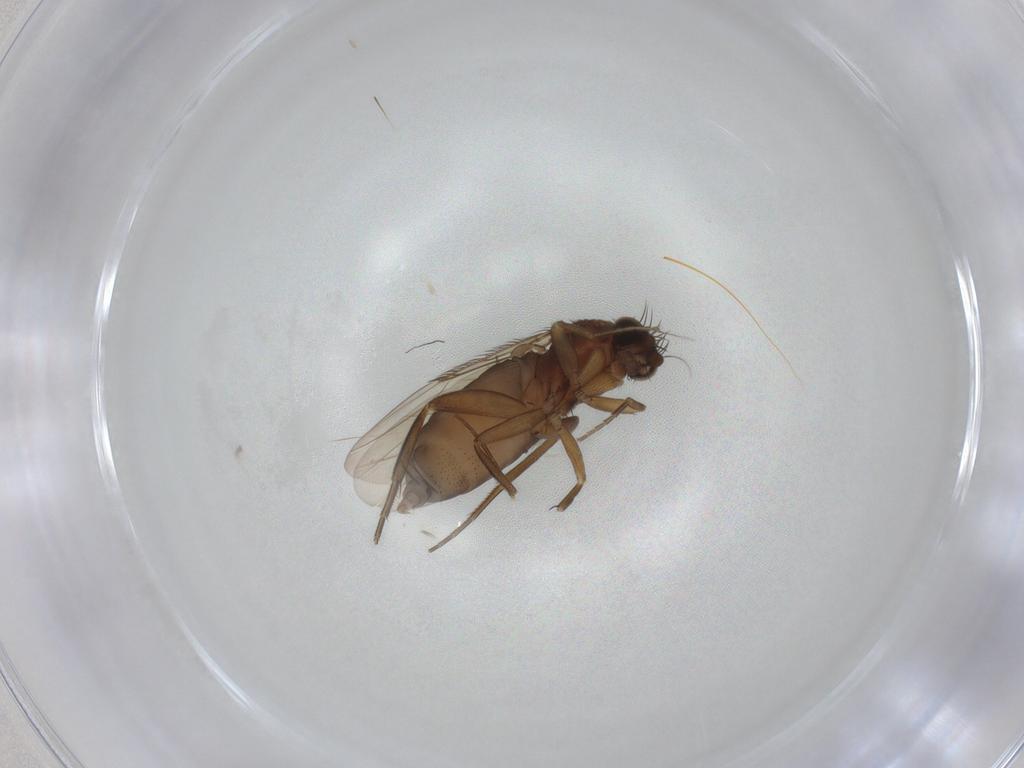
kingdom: Animalia
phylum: Arthropoda
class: Insecta
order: Diptera
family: Phoridae
